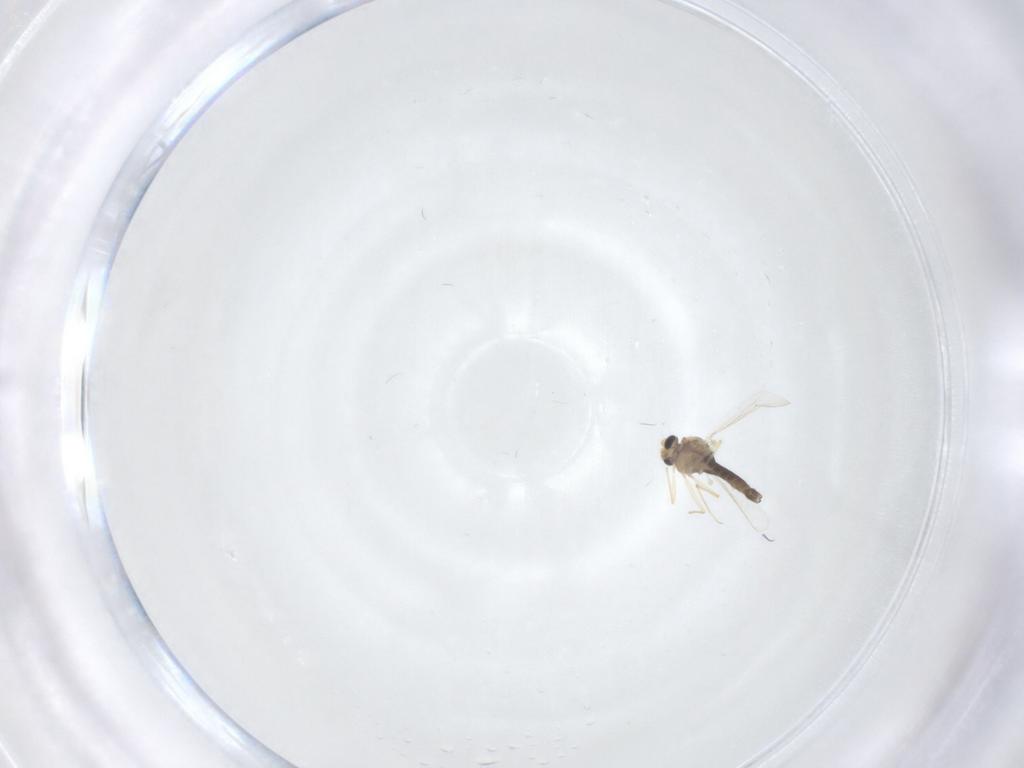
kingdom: Animalia
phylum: Arthropoda
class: Insecta
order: Diptera
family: Chironomidae
